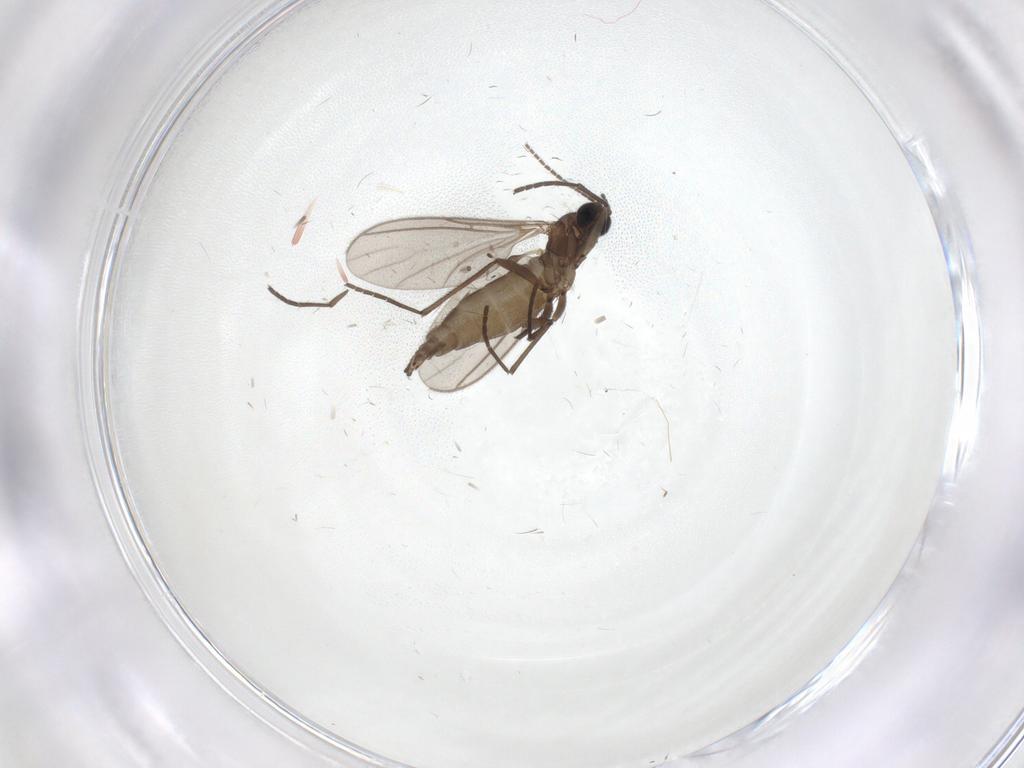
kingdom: Animalia
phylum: Arthropoda
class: Insecta
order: Diptera
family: Sciaridae
